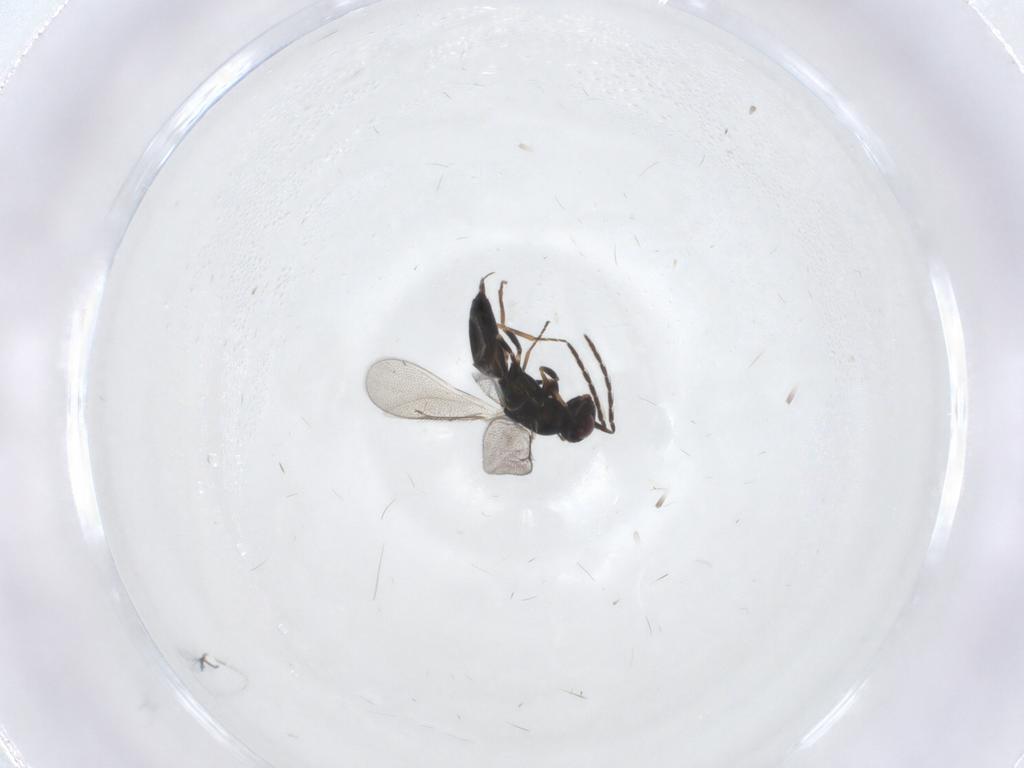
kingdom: Animalia
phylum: Arthropoda
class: Insecta
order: Hymenoptera
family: Eulophidae
